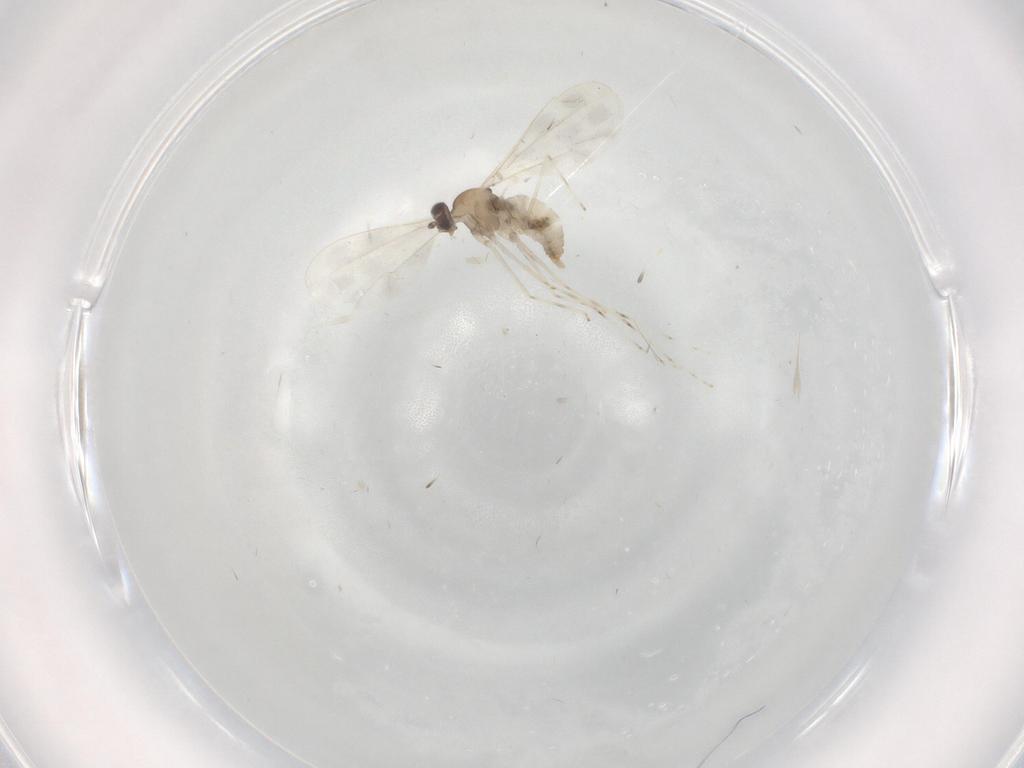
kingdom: Animalia
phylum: Arthropoda
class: Insecta
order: Diptera
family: Cecidomyiidae
